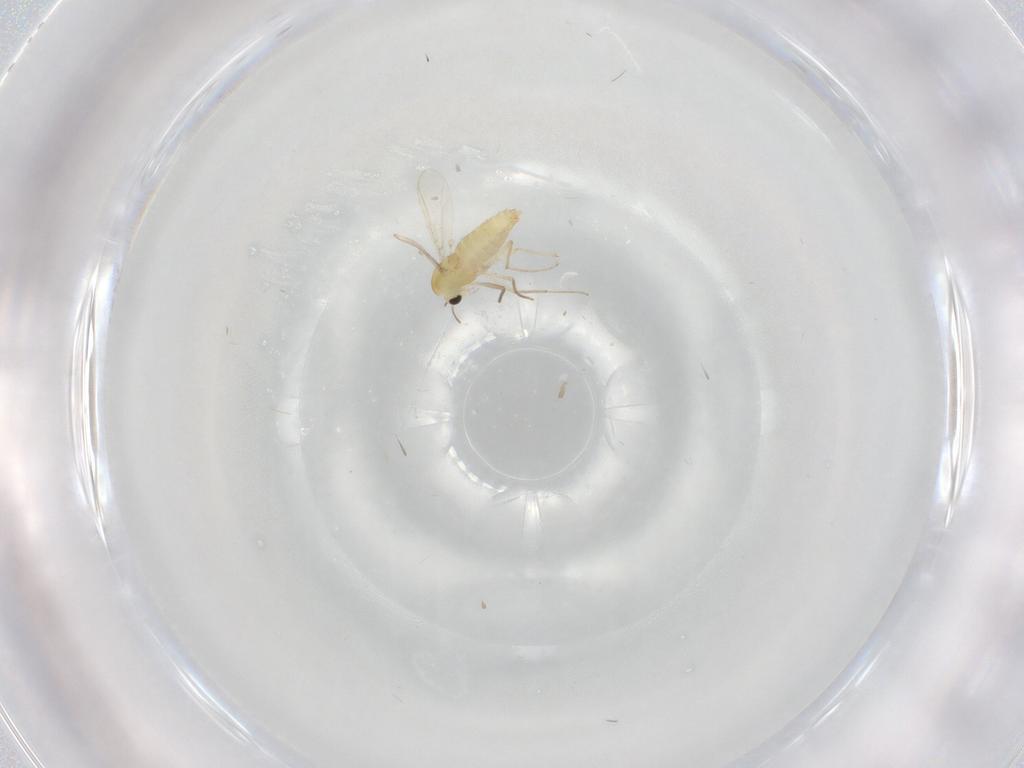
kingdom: Animalia
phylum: Arthropoda
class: Insecta
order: Diptera
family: Chironomidae
